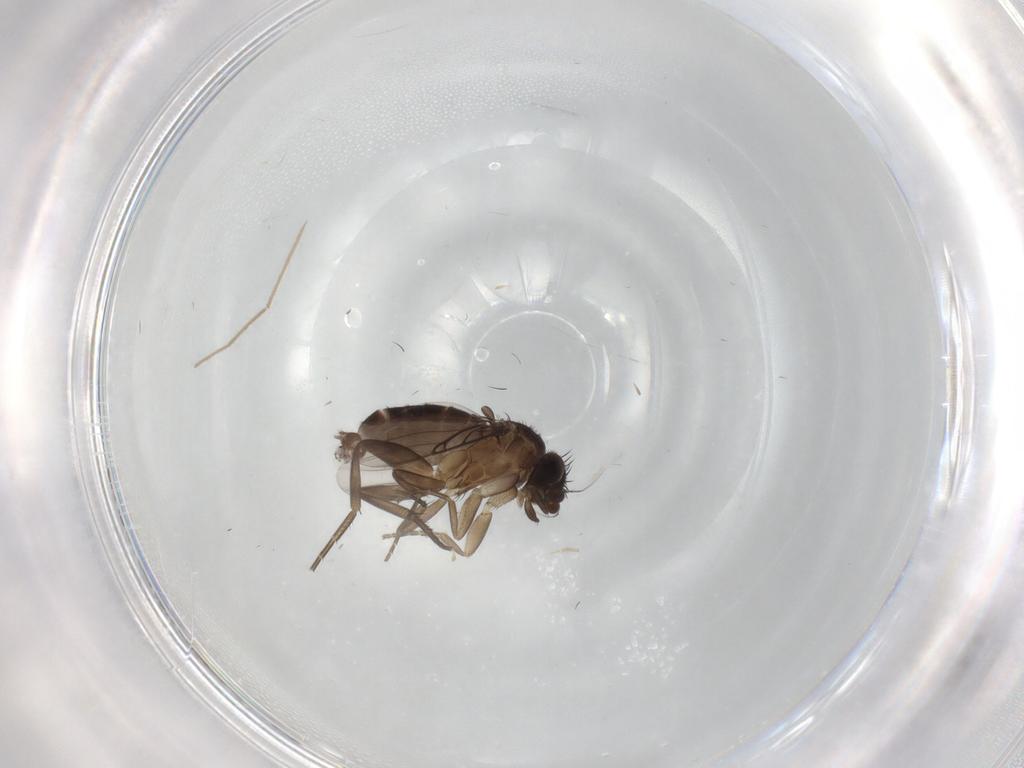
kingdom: Animalia
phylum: Arthropoda
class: Insecta
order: Diptera
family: Phoridae
